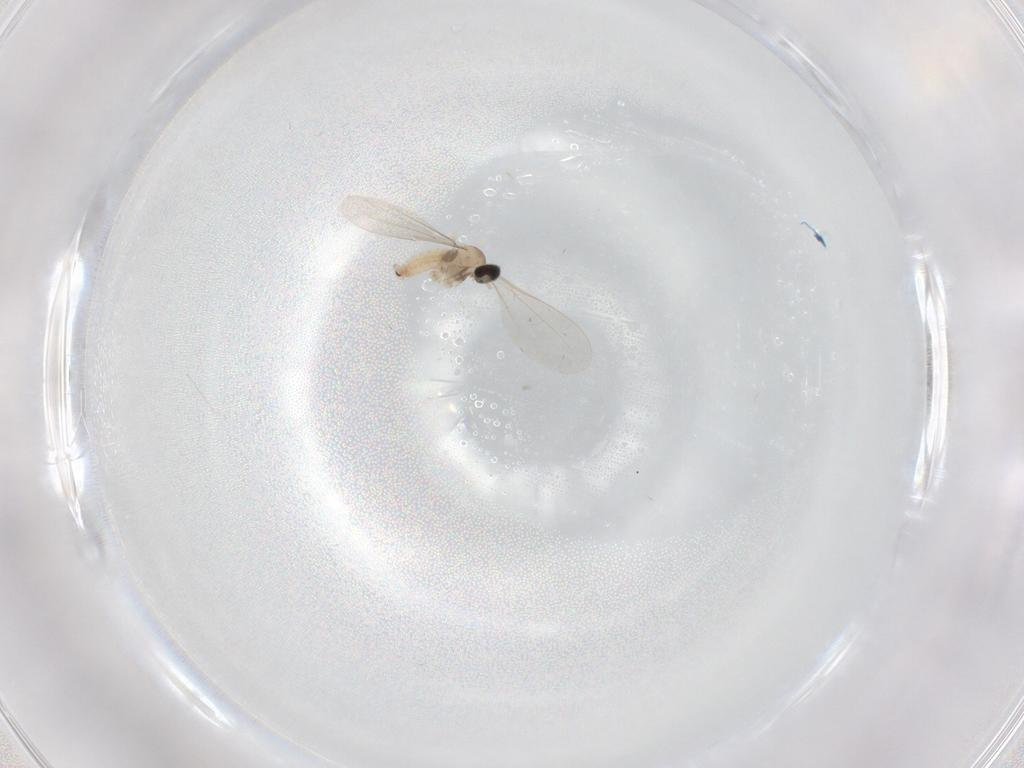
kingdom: Animalia
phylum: Arthropoda
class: Insecta
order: Diptera
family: Cecidomyiidae
